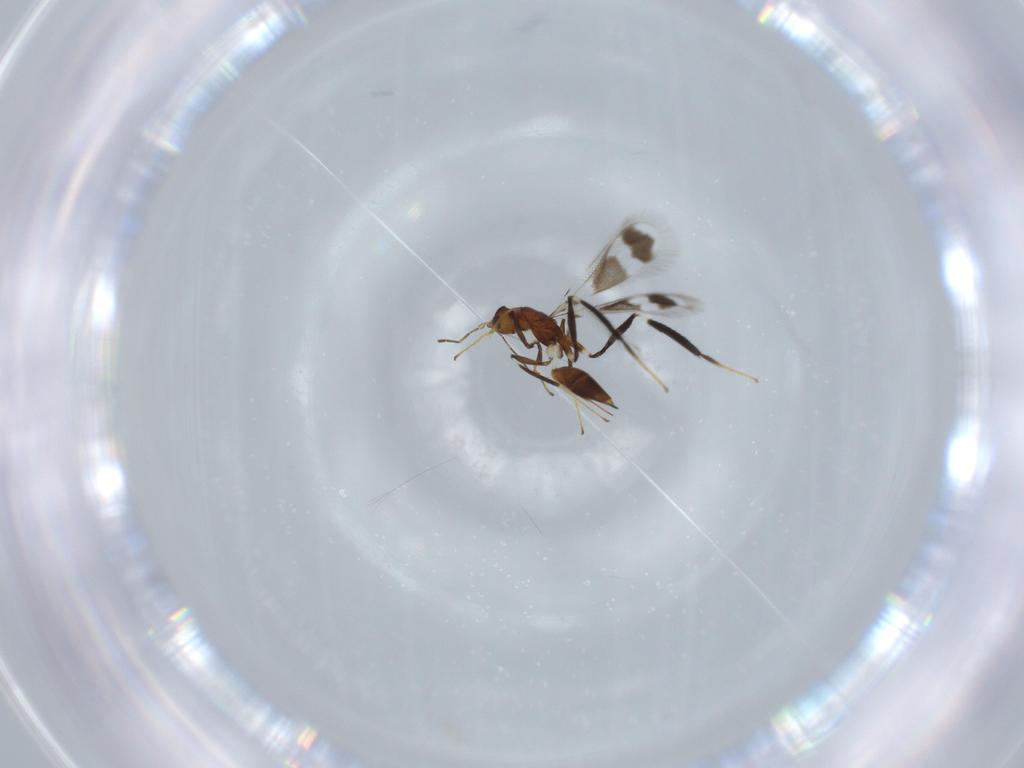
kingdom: Animalia
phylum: Arthropoda
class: Insecta
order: Hymenoptera
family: Mymaridae
